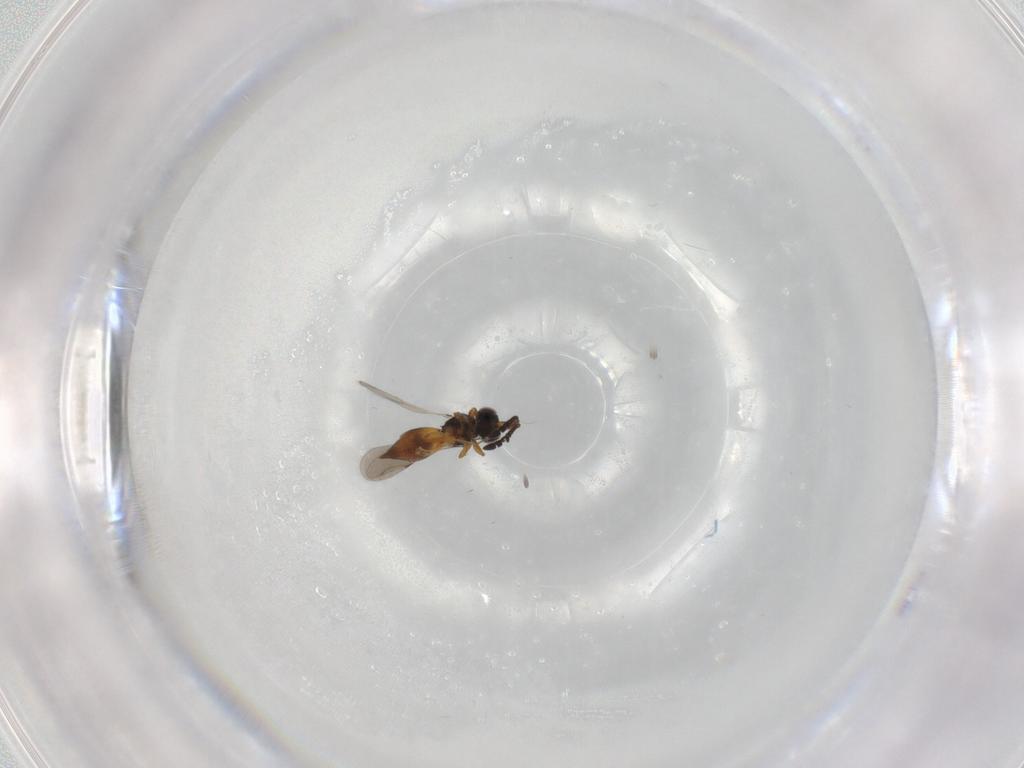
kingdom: Animalia
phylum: Arthropoda
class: Insecta
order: Hymenoptera
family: Ceraphronidae
